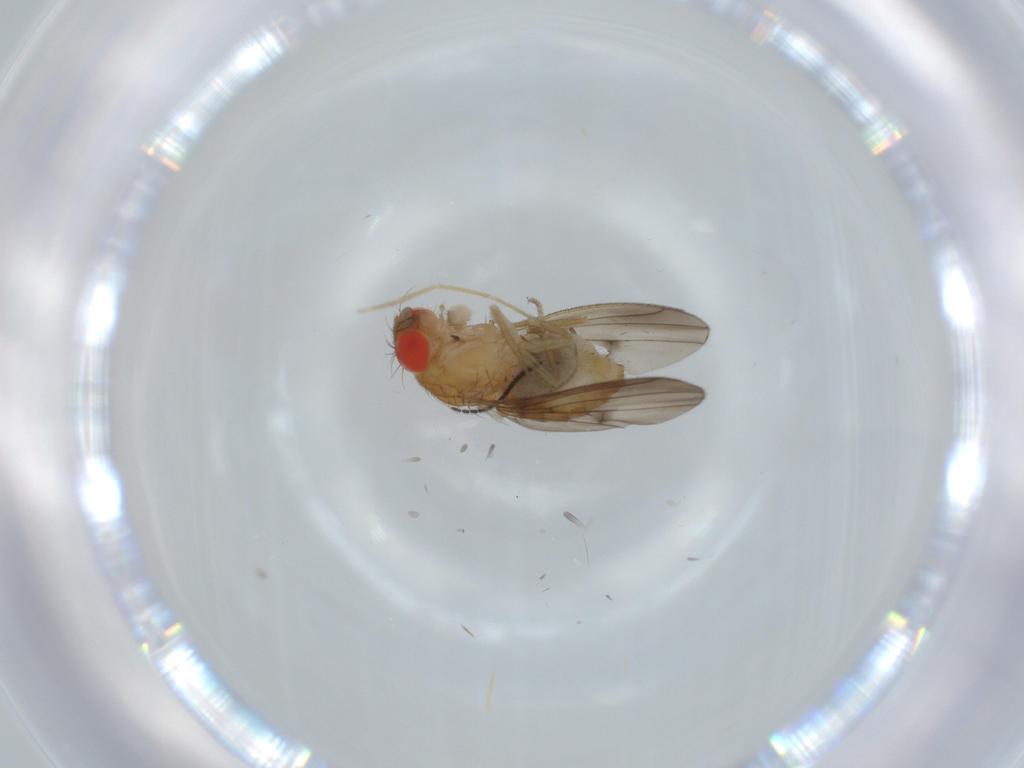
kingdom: Animalia
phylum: Arthropoda
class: Insecta
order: Diptera
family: Drosophilidae
